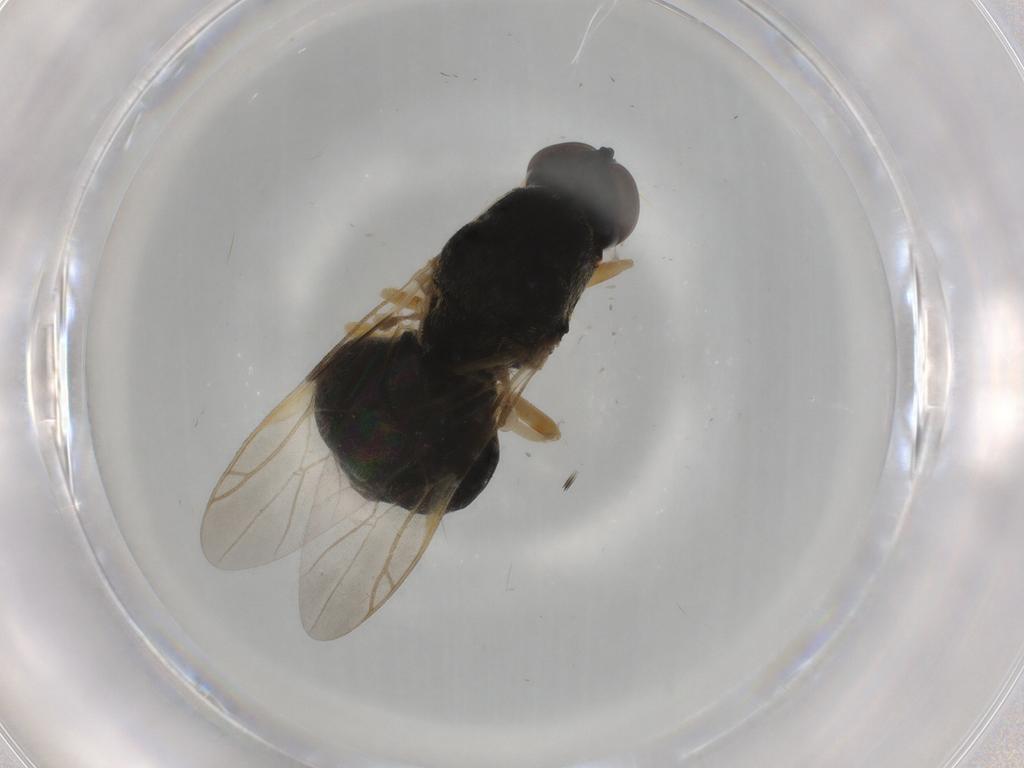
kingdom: Animalia
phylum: Arthropoda
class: Insecta
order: Diptera
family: Stratiomyidae
